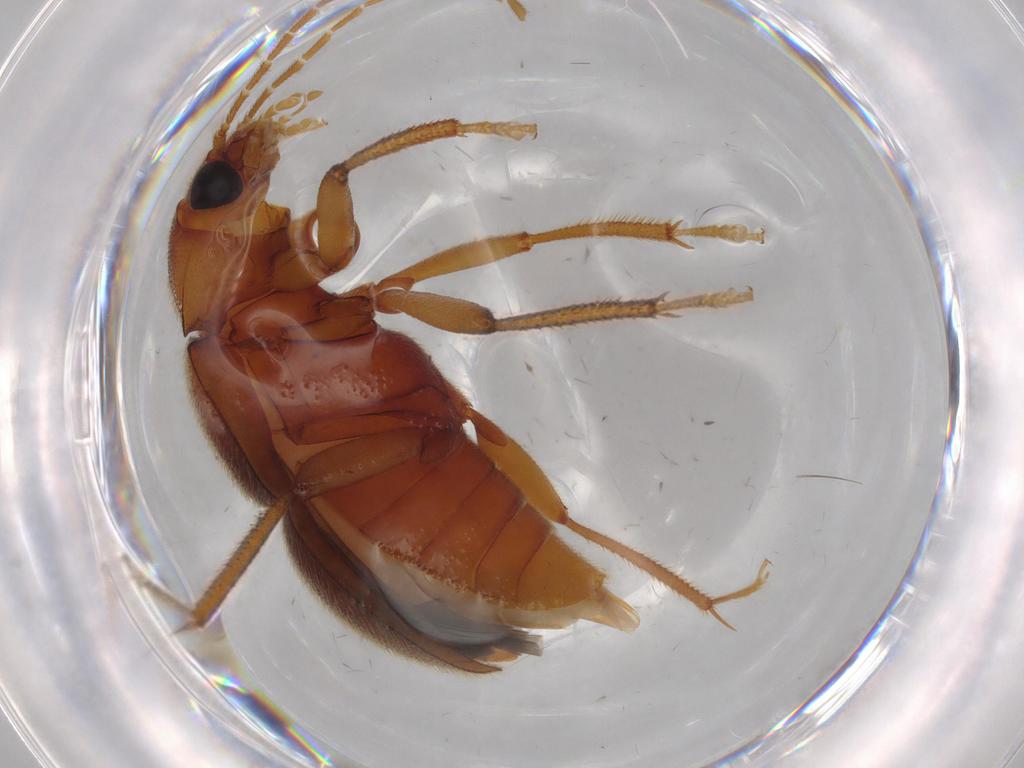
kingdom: Animalia
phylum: Arthropoda
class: Insecta
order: Coleoptera
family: Ptilodactylidae
